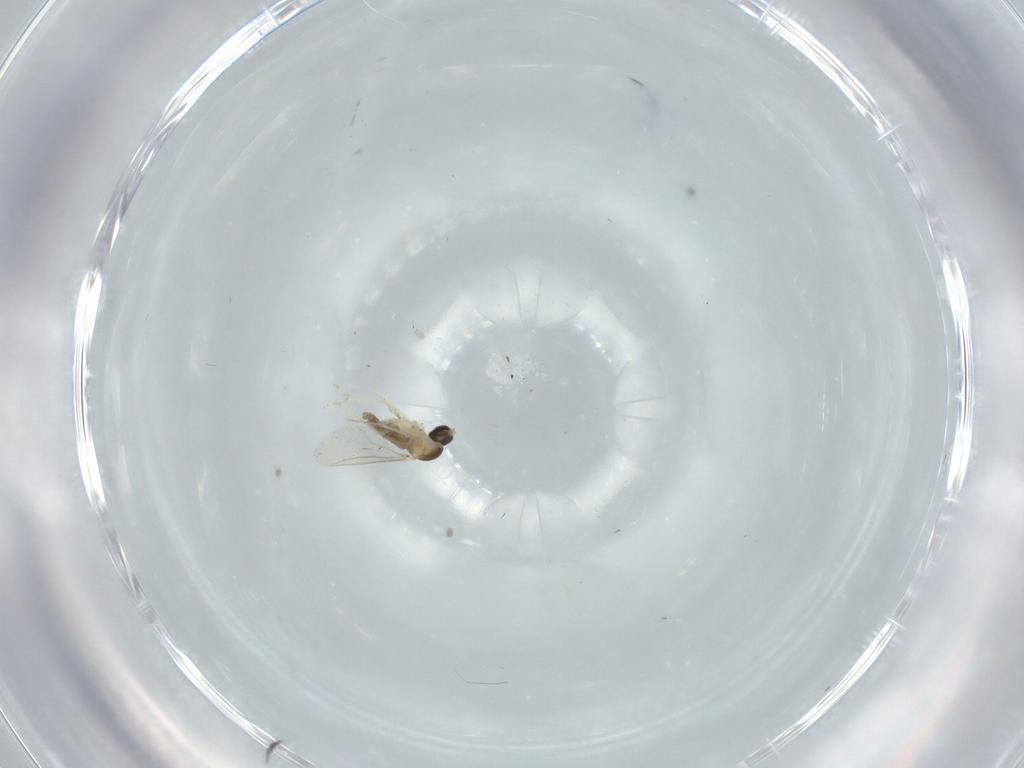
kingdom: Animalia
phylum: Arthropoda
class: Insecta
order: Diptera
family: Cecidomyiidae
